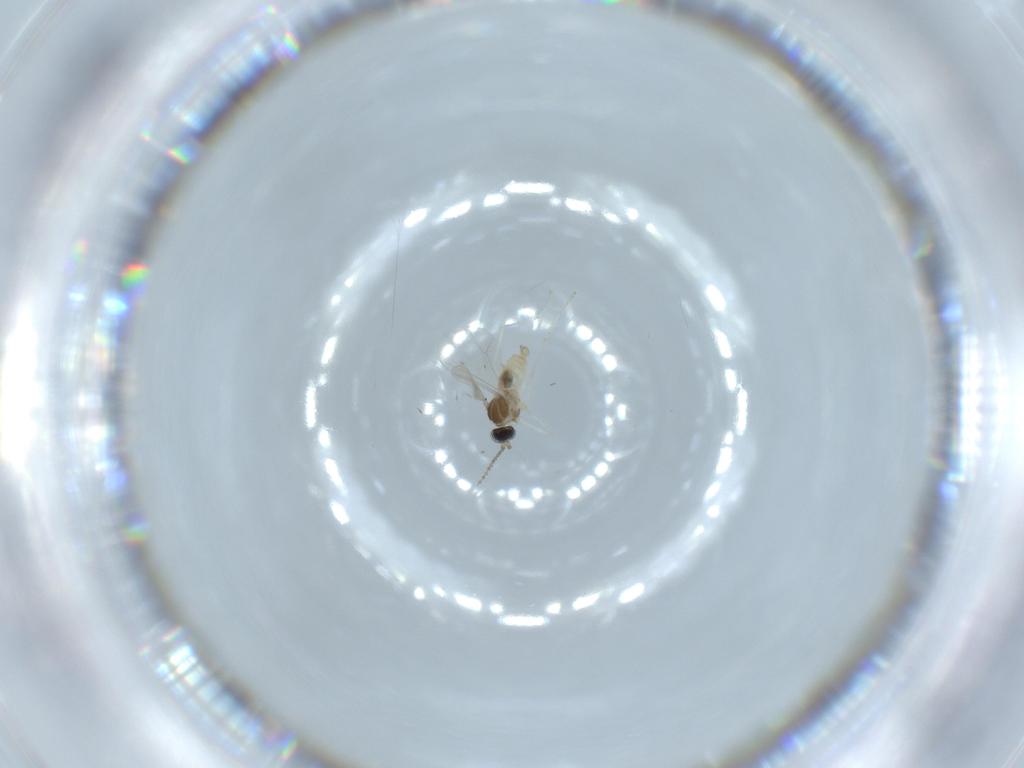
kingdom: Animalia
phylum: Arthropoda
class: Insecta
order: Diptera
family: Cecidomyiidae
